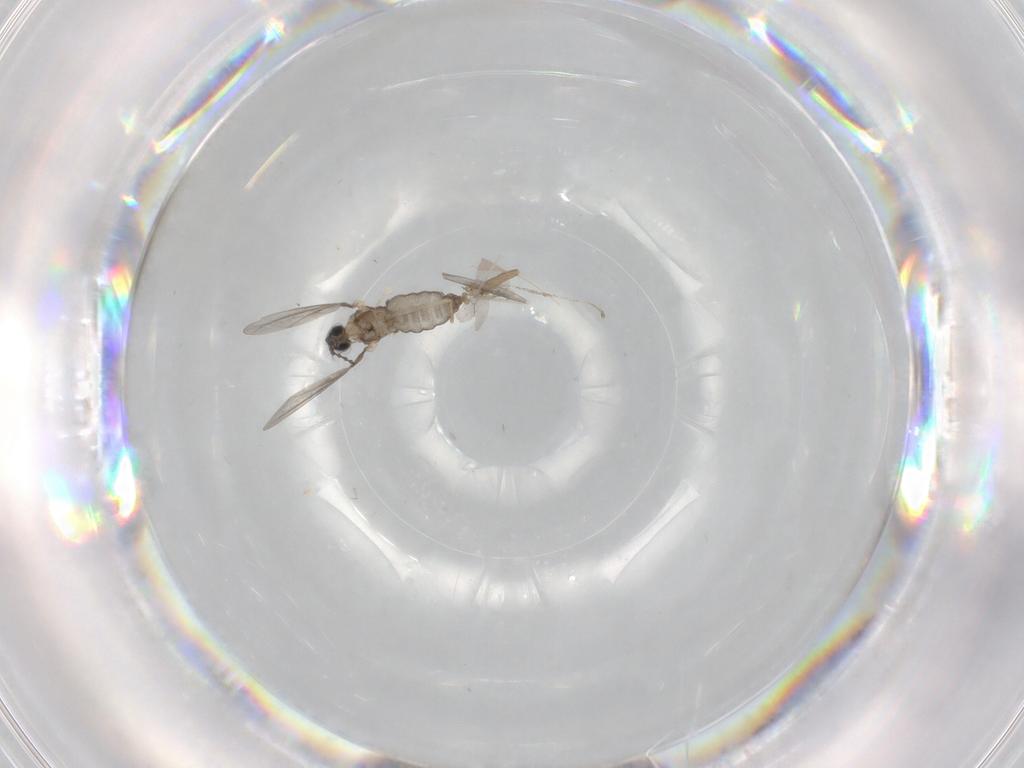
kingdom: Animalia
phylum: Arthropoda
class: Insecta
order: Diptera
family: Cecidomyiidae
